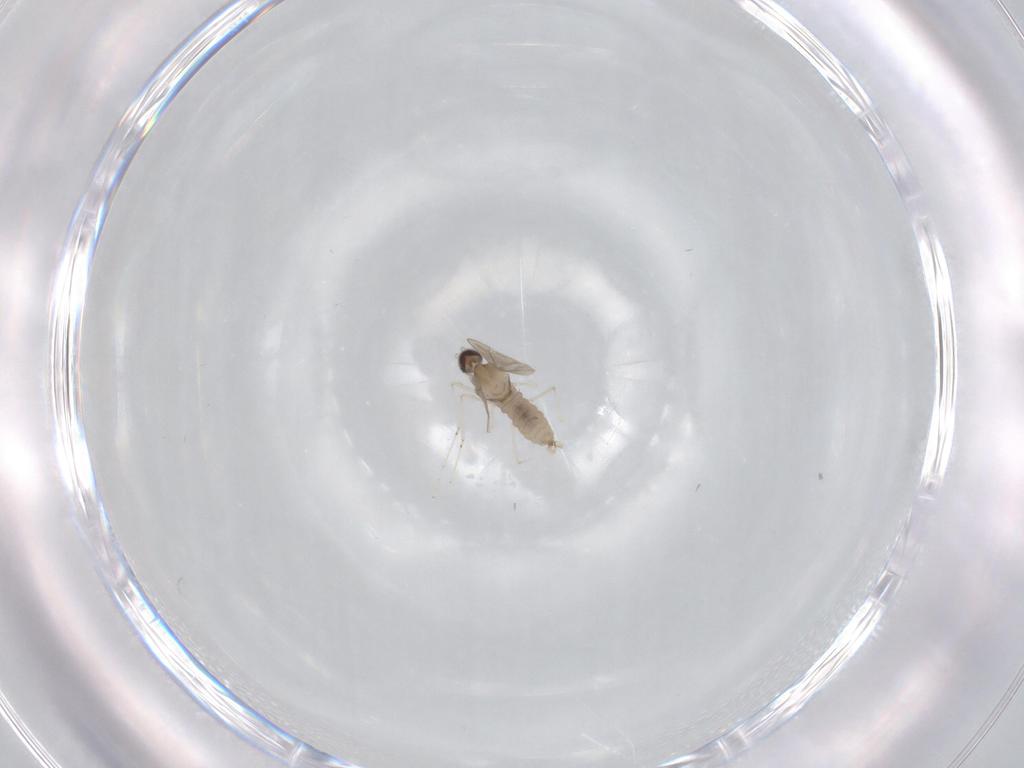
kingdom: Animalia
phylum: Arthropoda
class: Insecta
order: Diptera
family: Cecidomyiidae
